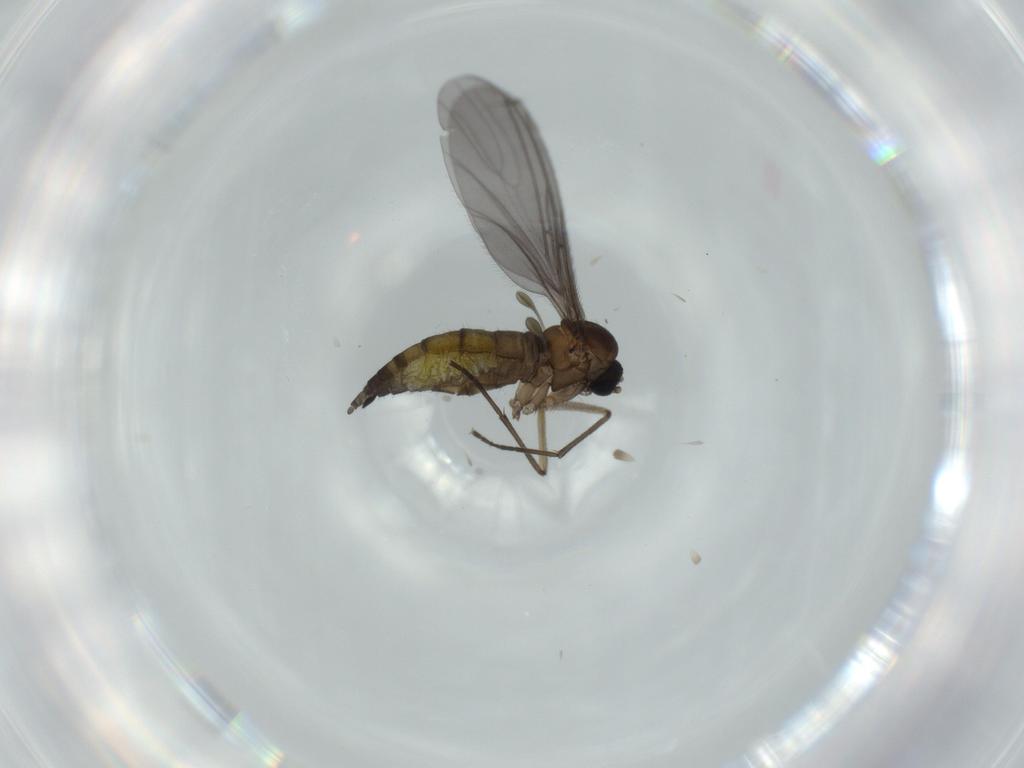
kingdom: Animalia
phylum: Arthropoda
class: Insecta
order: Diptera
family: Sciaridae
